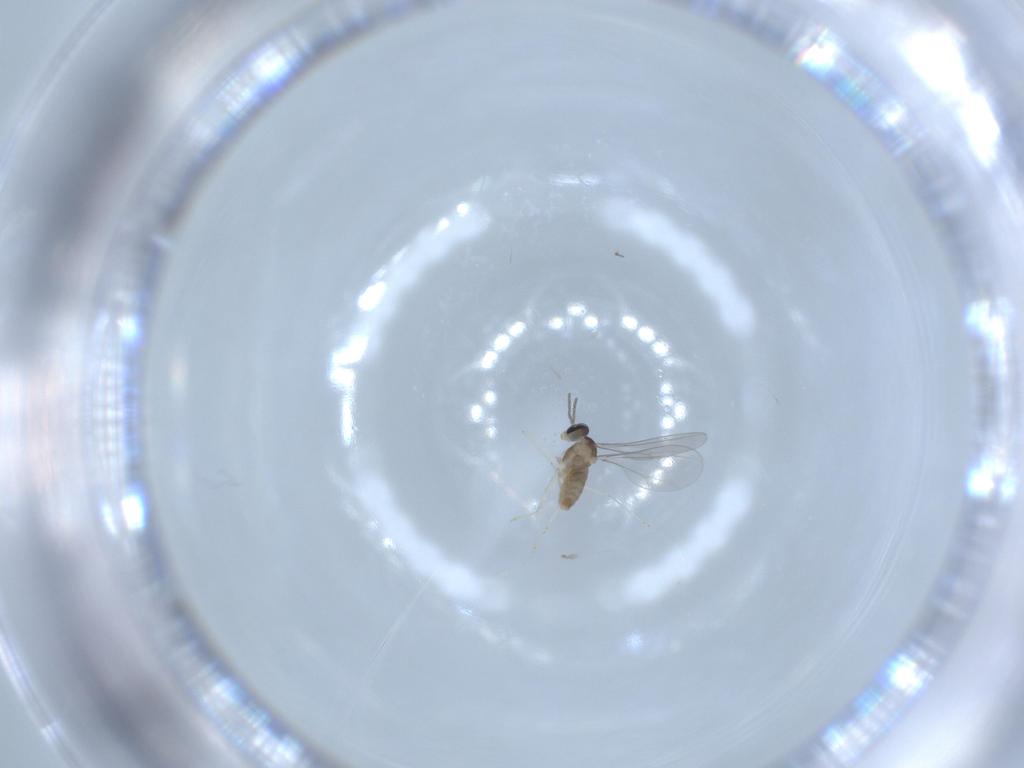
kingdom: Animalia
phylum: Arthropoda
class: Insecta
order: Diptera
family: Cecidomyiidae
